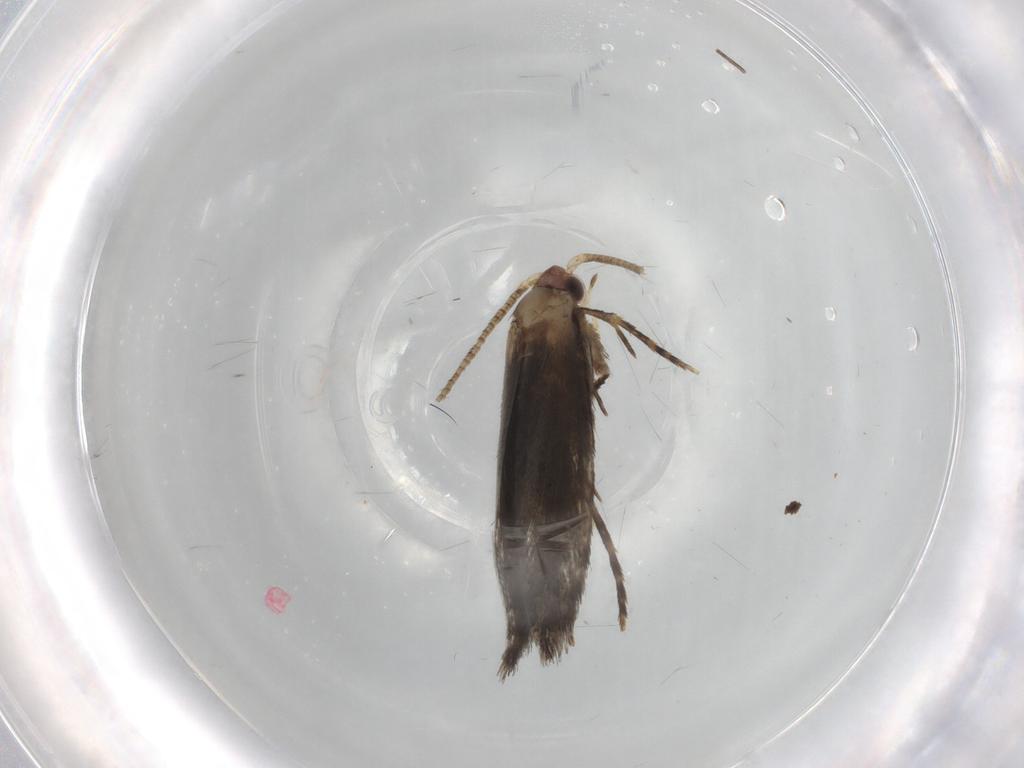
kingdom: Animalia
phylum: Arthropoda
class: Insecta
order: Lepidoptera
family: Tineidae
